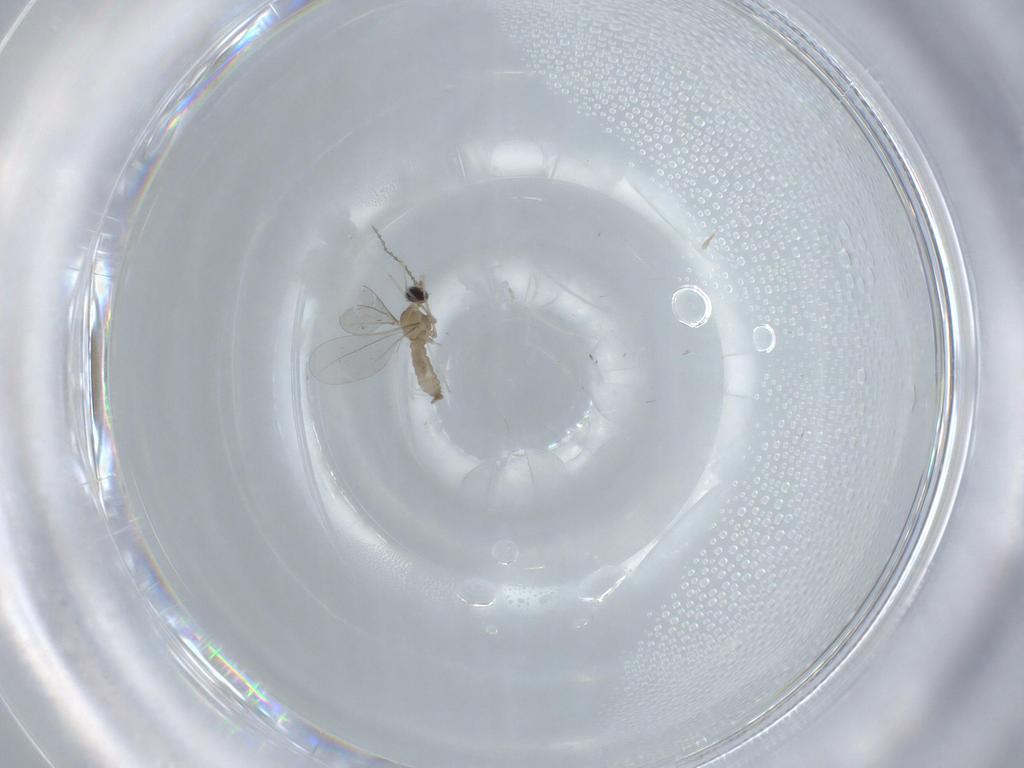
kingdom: Animalia
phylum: Arthropoda
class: Insecta
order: Diptera
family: Cecidomyiidae
